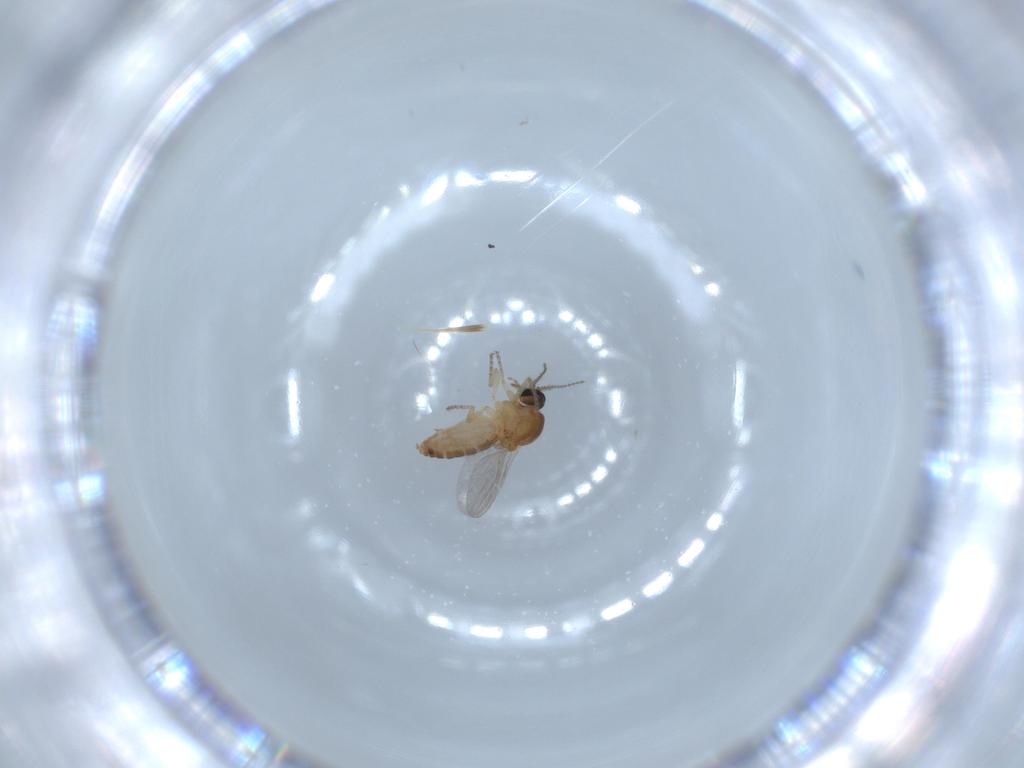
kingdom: Animalia
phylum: Arthropoda
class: Insecta
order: Diptera
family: Ceratopogonidae
